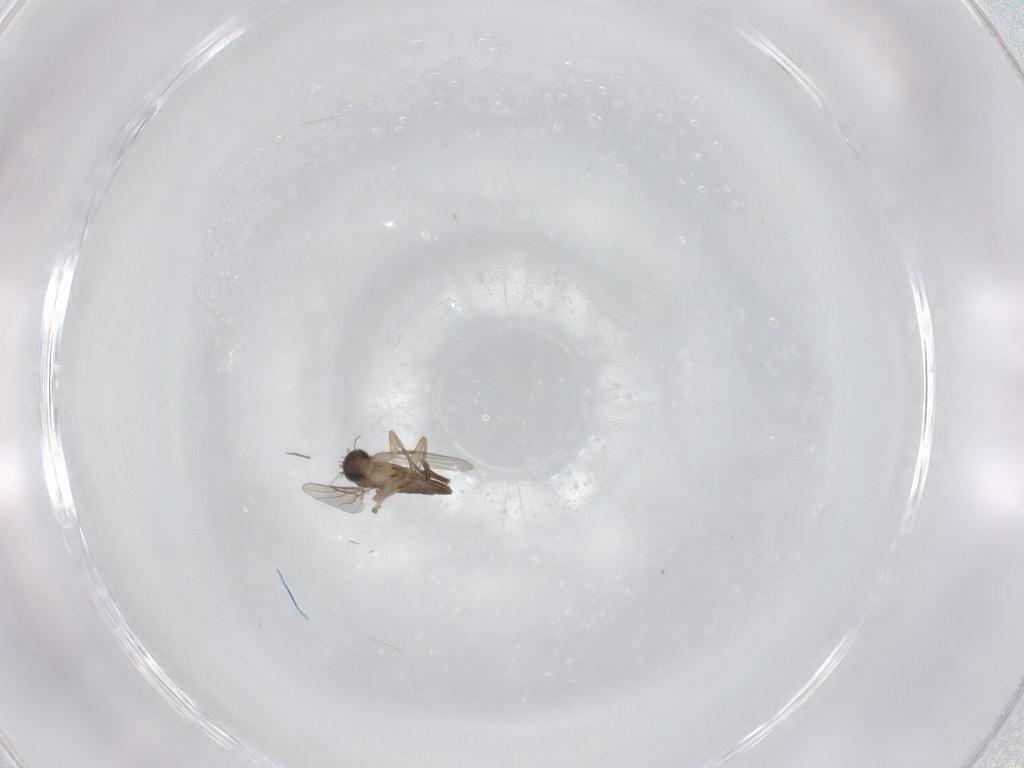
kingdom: Animalia
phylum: Arthropoda
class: Insecta
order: Diptera
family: Phoridae
